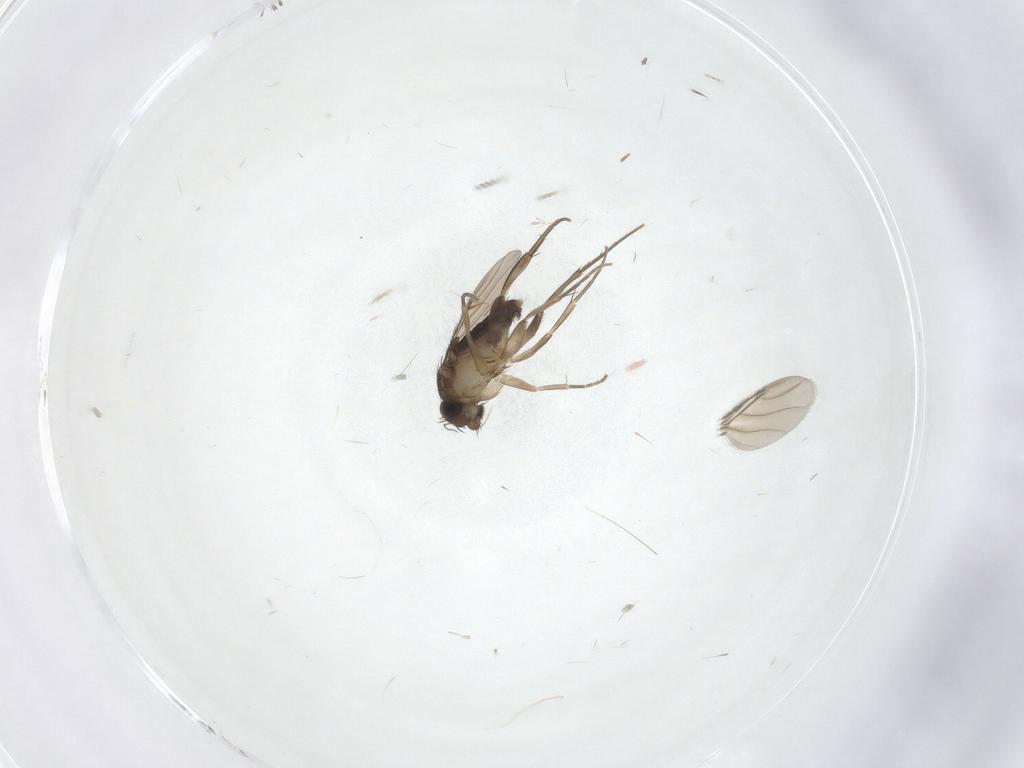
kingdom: Animalia
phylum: Arthropoda
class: Insecta
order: Diptera
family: Phoridae
